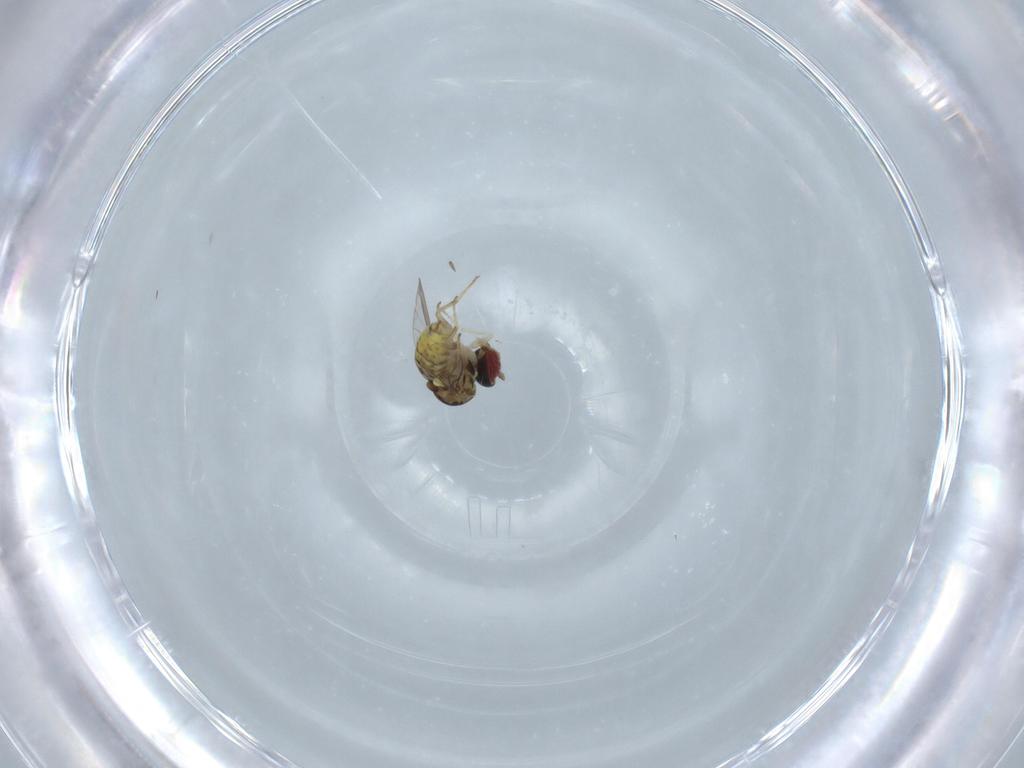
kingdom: Animalia
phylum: Arthropoda
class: Insecta
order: Diptera
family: Bombyliidae
